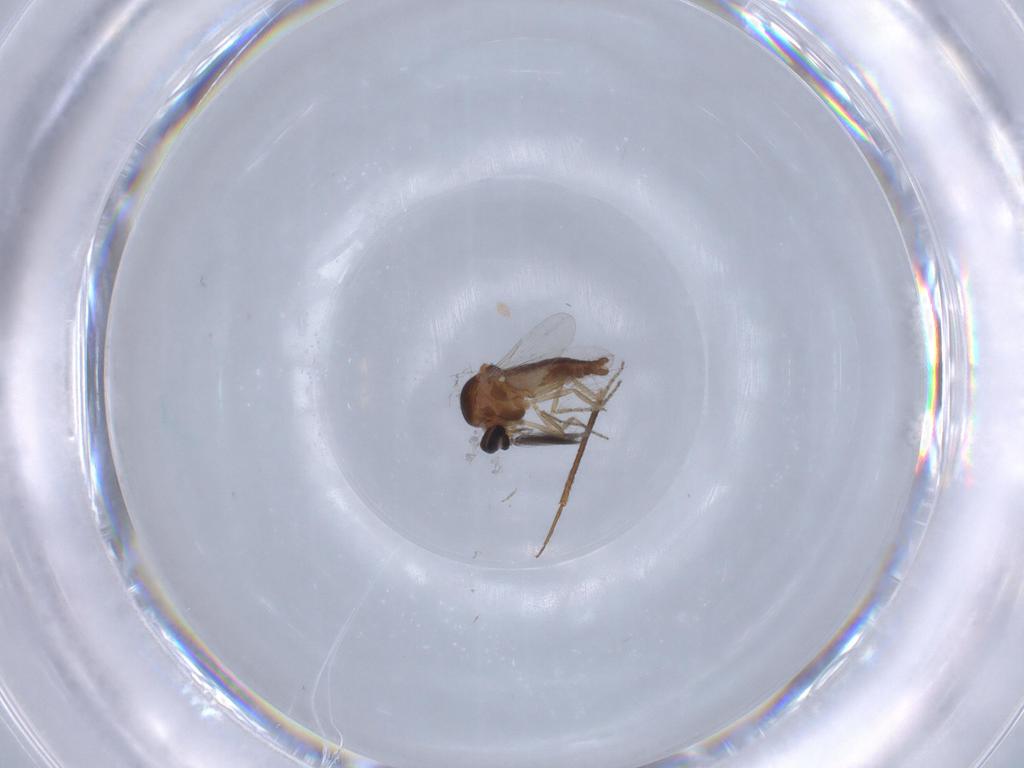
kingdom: Animalia
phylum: Arthropoda
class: Insecta
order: Diptera
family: Ceratopogonidae
